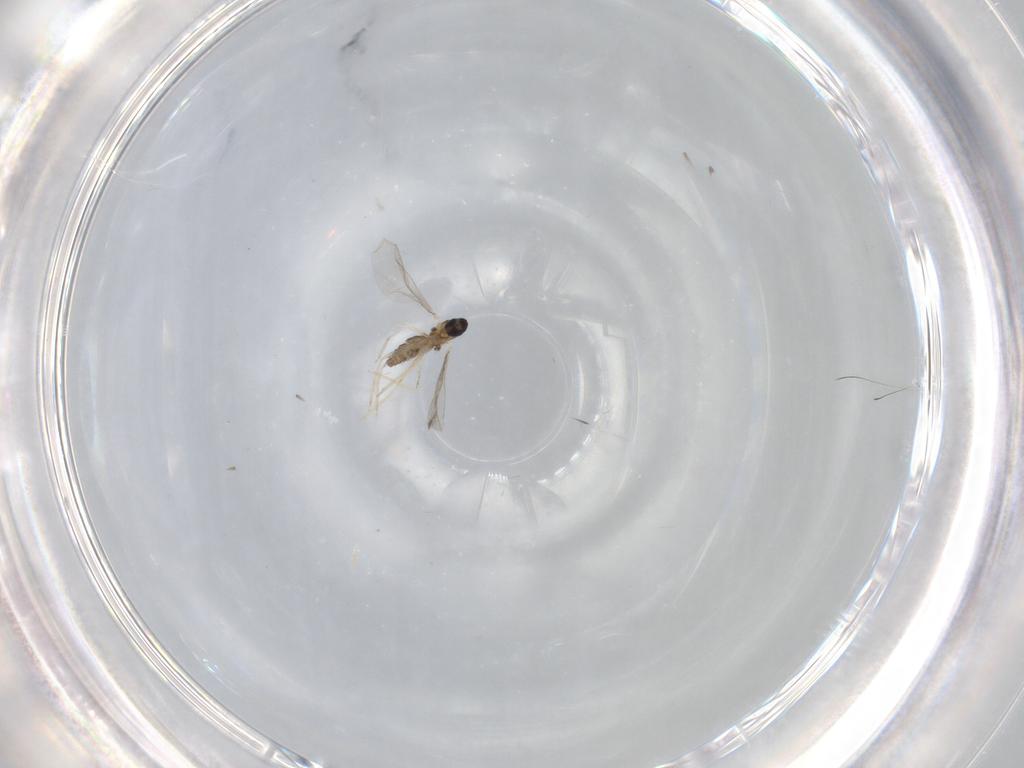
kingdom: Animalia
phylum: Arthropoda
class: Insecta
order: Diptera
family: Cecidomyiidae
